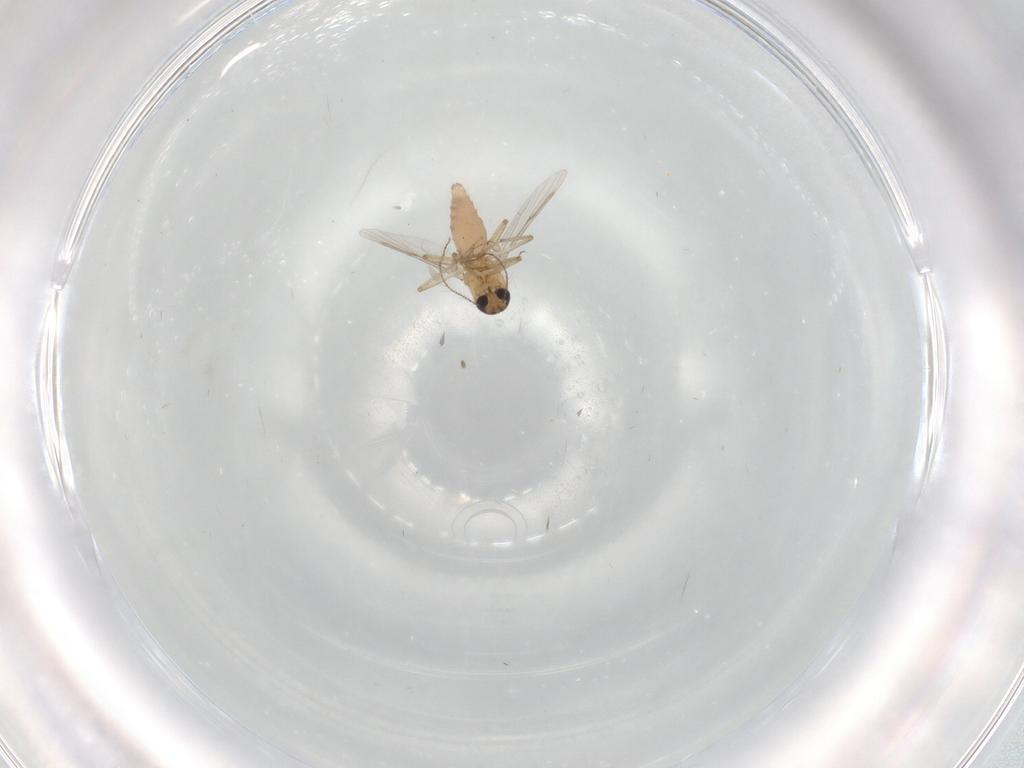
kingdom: Animalia
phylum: Arthropoda
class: Insecta
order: Diptera
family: Ceratopogonidae
